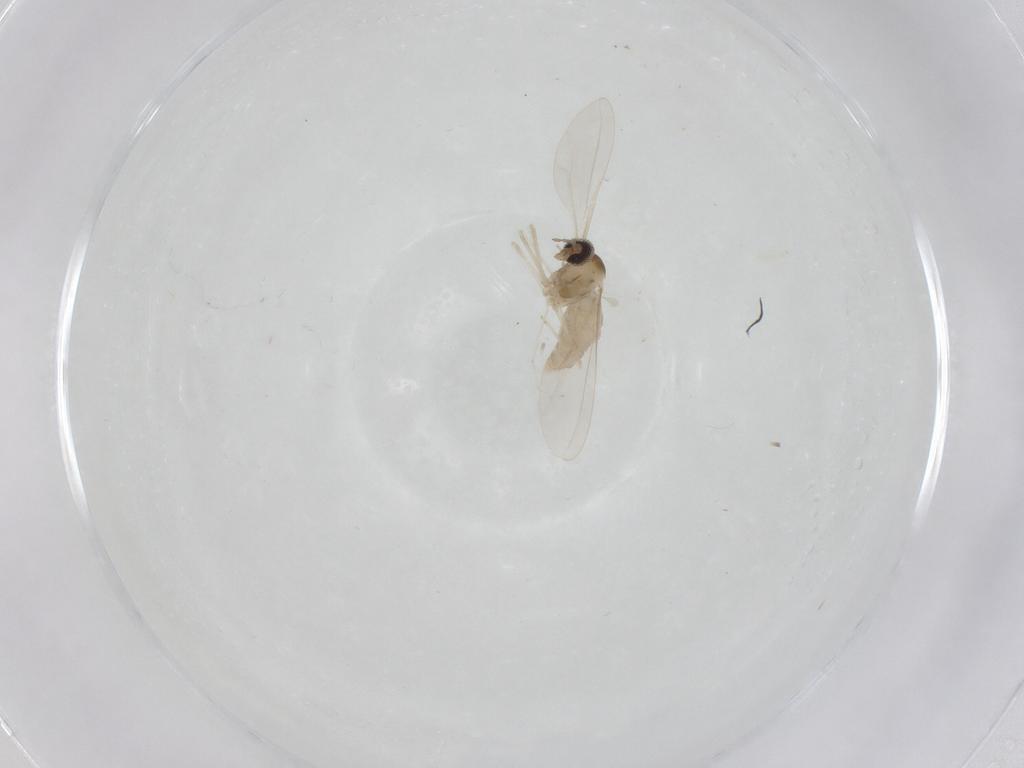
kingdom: Animalia
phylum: Arthropoda
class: Insecta
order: Diptera
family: Cecidomyiidae
